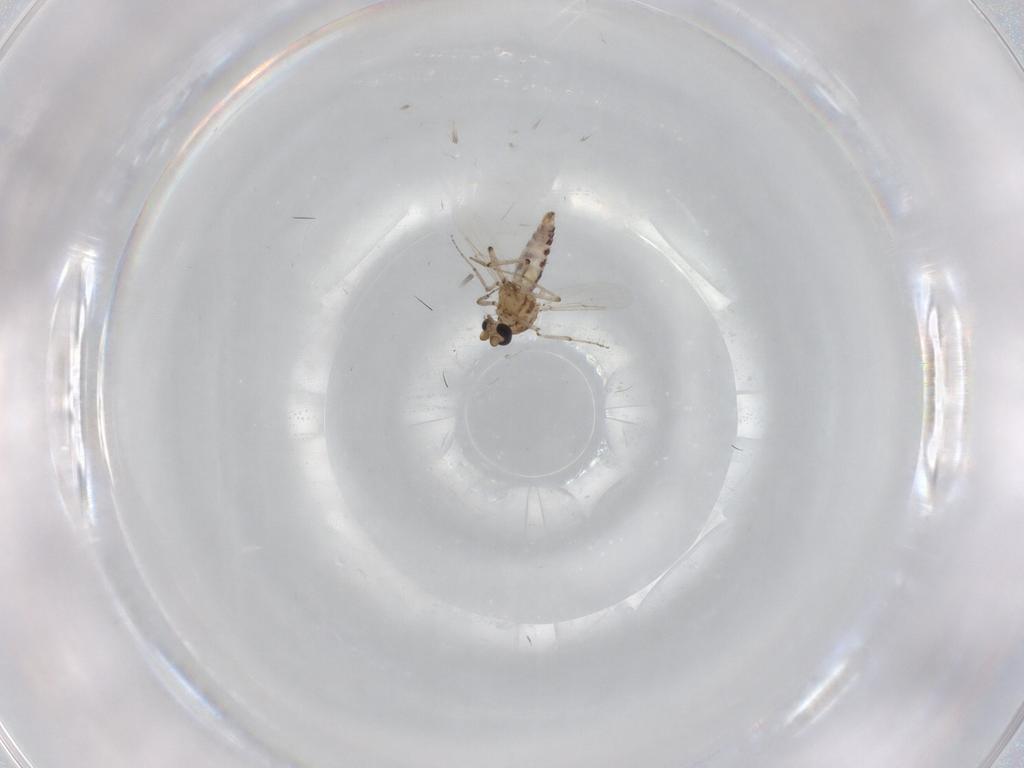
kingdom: Animalia
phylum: Arthropoda
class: Insecta
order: Diptera
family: Ceratopogonidae
